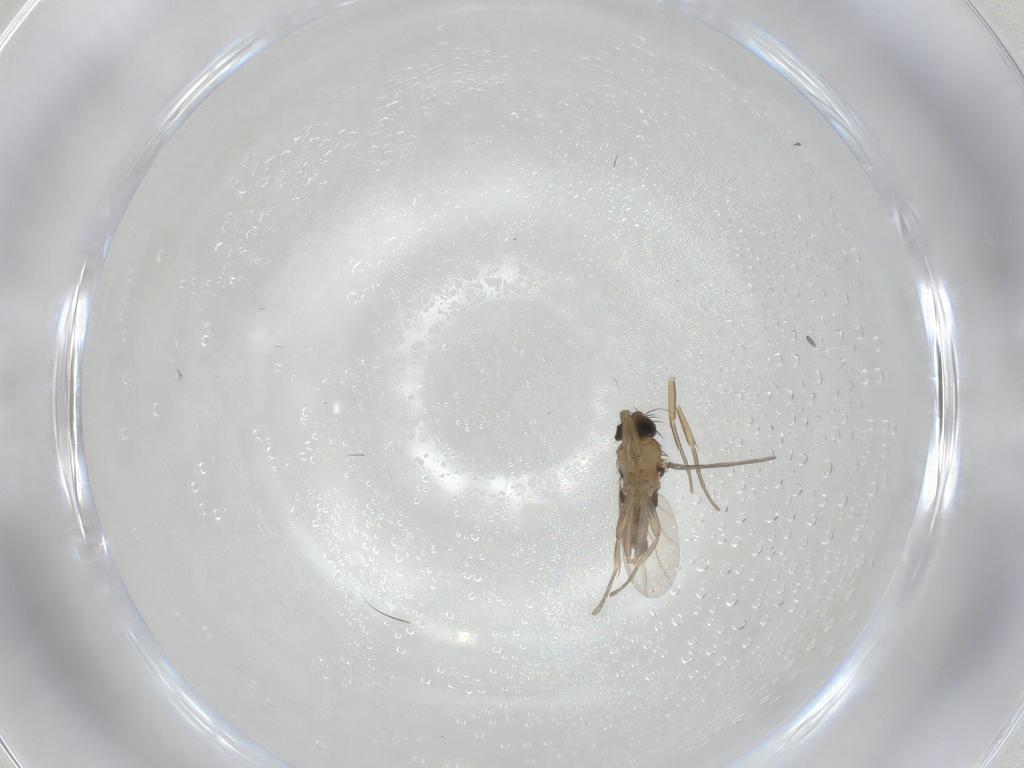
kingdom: Animalia
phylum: Arthropoda
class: Insecta
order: Diptera
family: Phoridae
